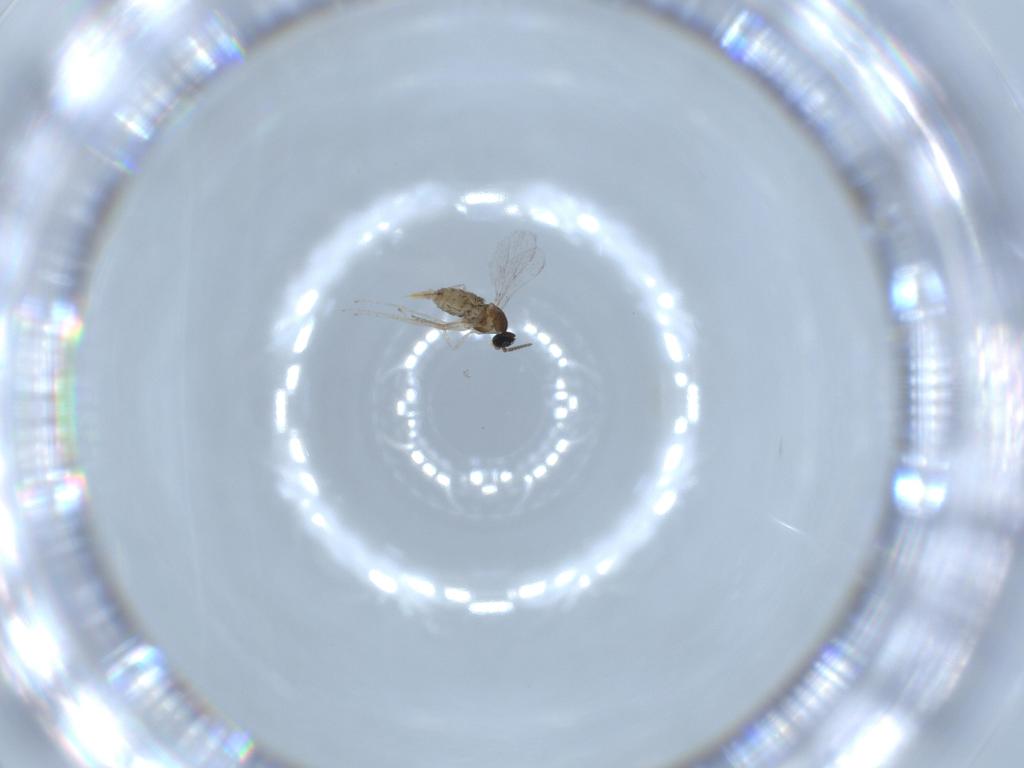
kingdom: Animalia
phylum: Arthropoda
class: Insecta
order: Diptera
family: Cecidomyiidae
